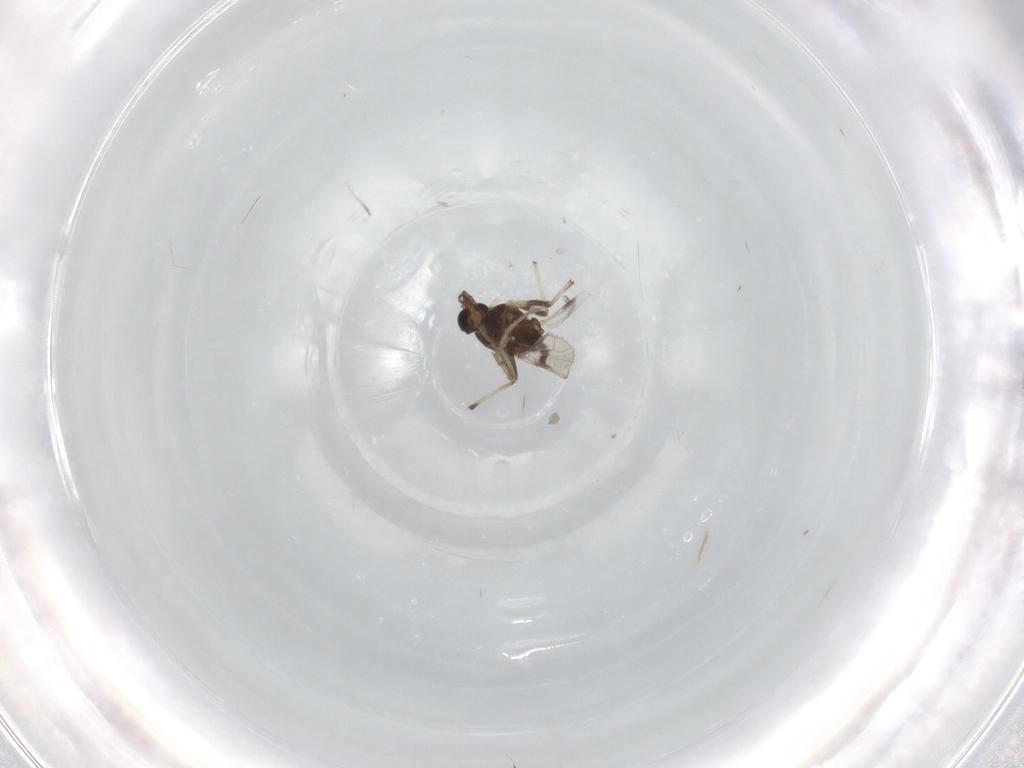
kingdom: Animalia
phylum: Arthropoda
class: Insecta
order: Diptera
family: Chironomidae
